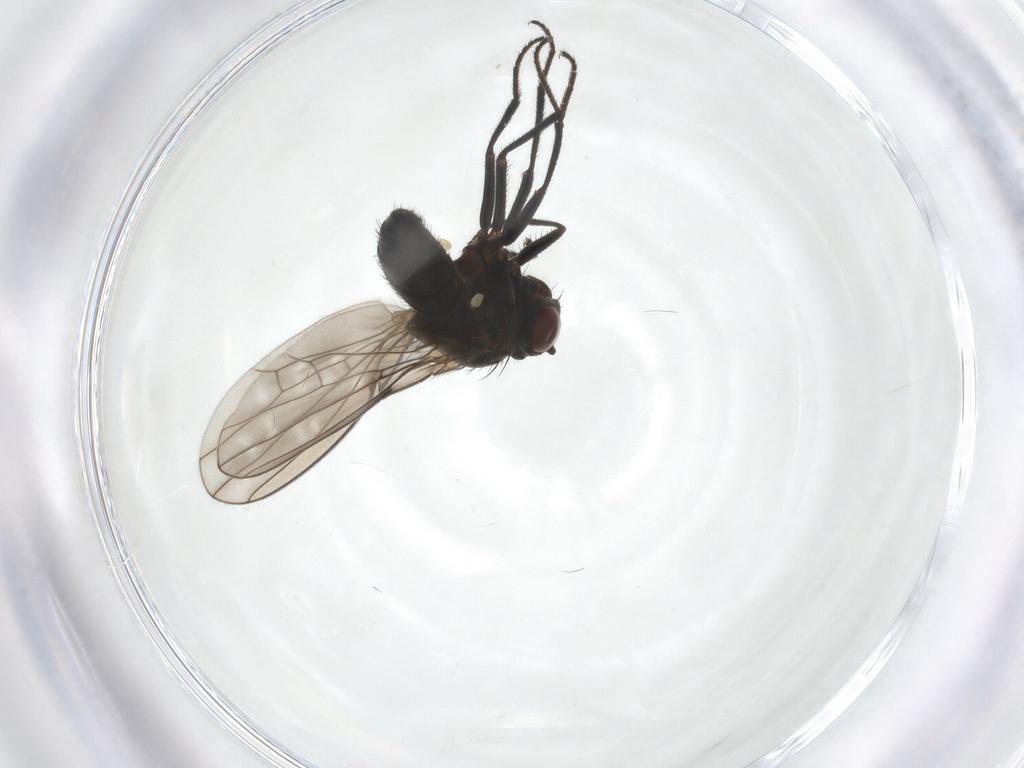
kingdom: Animalia
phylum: Arthropoda
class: Insecta
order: Diptera
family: Ephydridae
